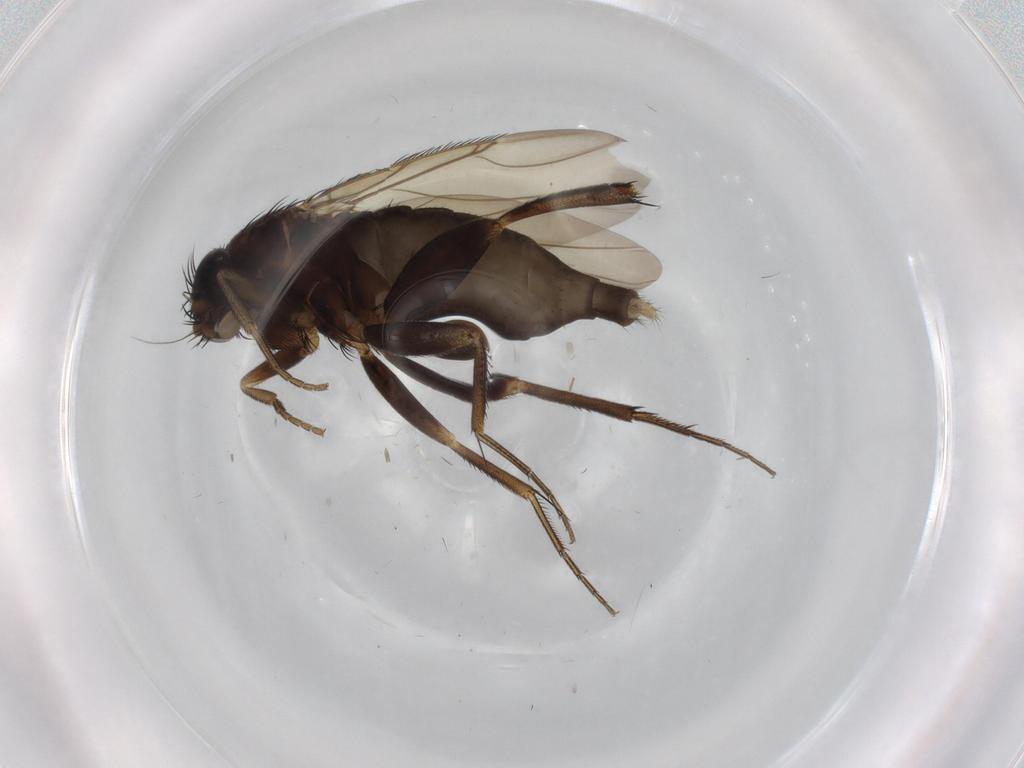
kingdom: Animalia
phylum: Arthropoda
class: Insecta
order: Diptera
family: Phoridae
